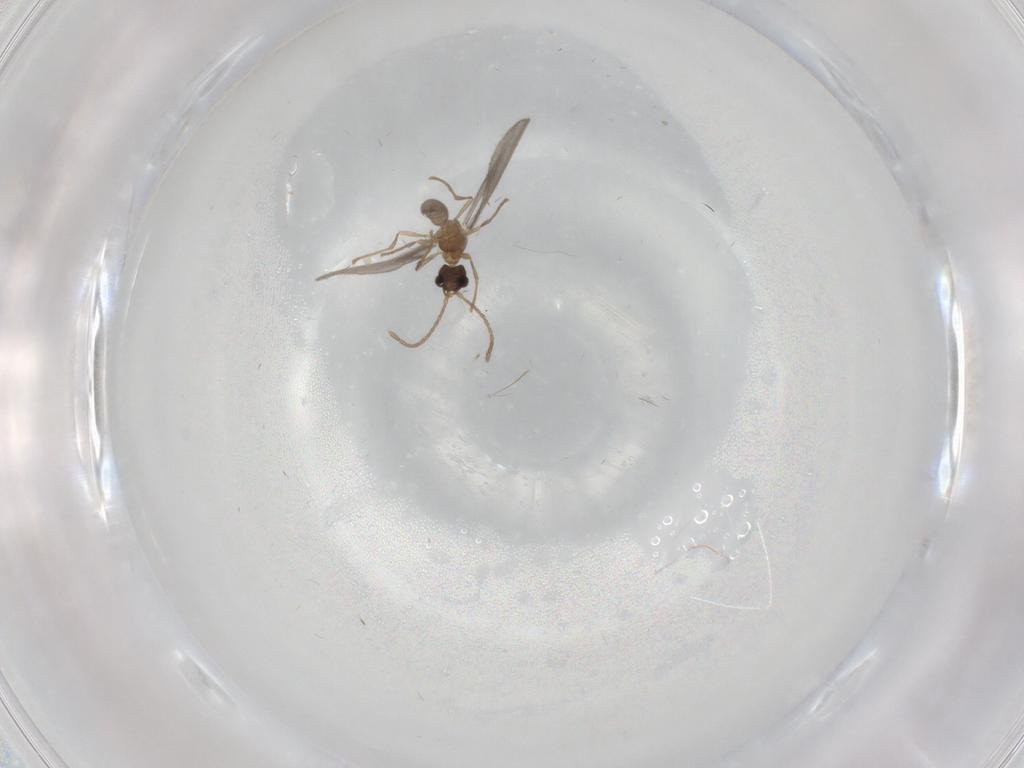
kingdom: Animalia
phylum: Arthropoda
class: Insecta
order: Hymenoptera
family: Formicidae
